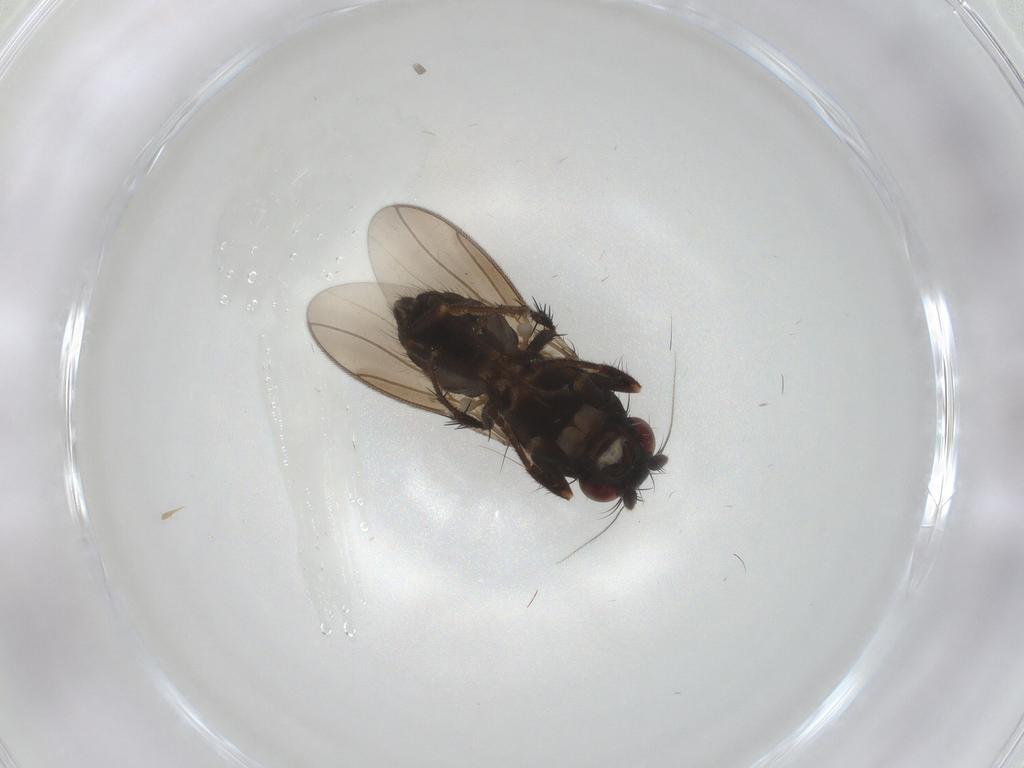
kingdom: Animalia
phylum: Arthropoda
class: Insecta
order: Diptera
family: Sphaeroceridae
